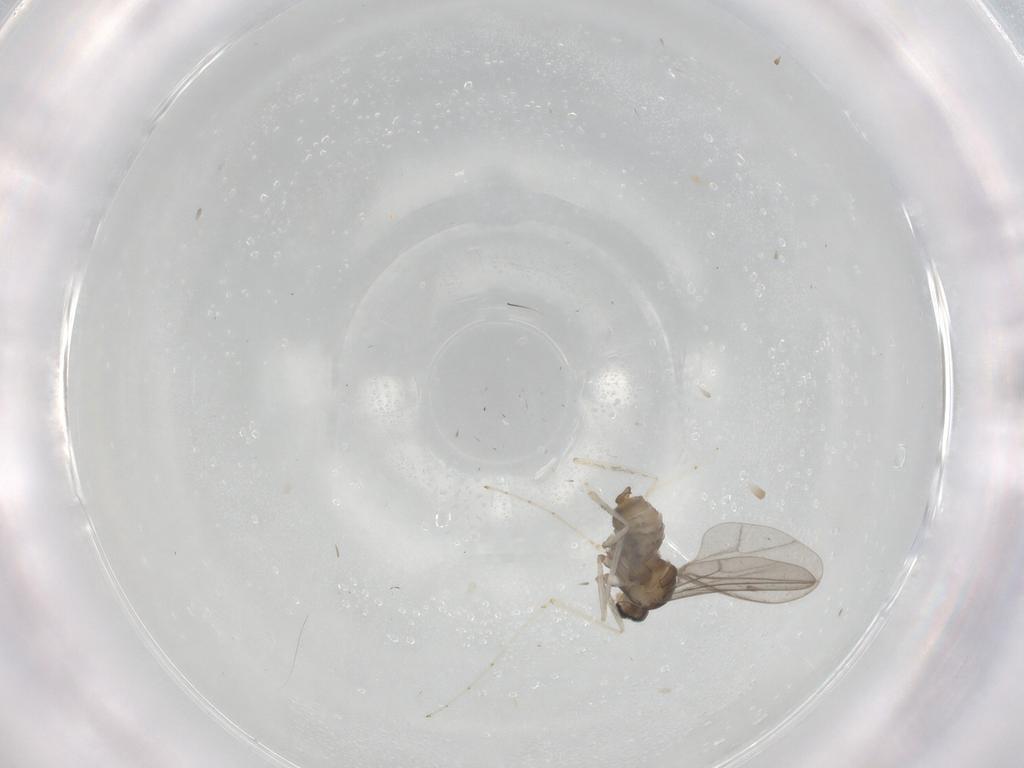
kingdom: Animalia
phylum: Arthropoda
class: Insecta
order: Diptera
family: Cecidomyiidae
